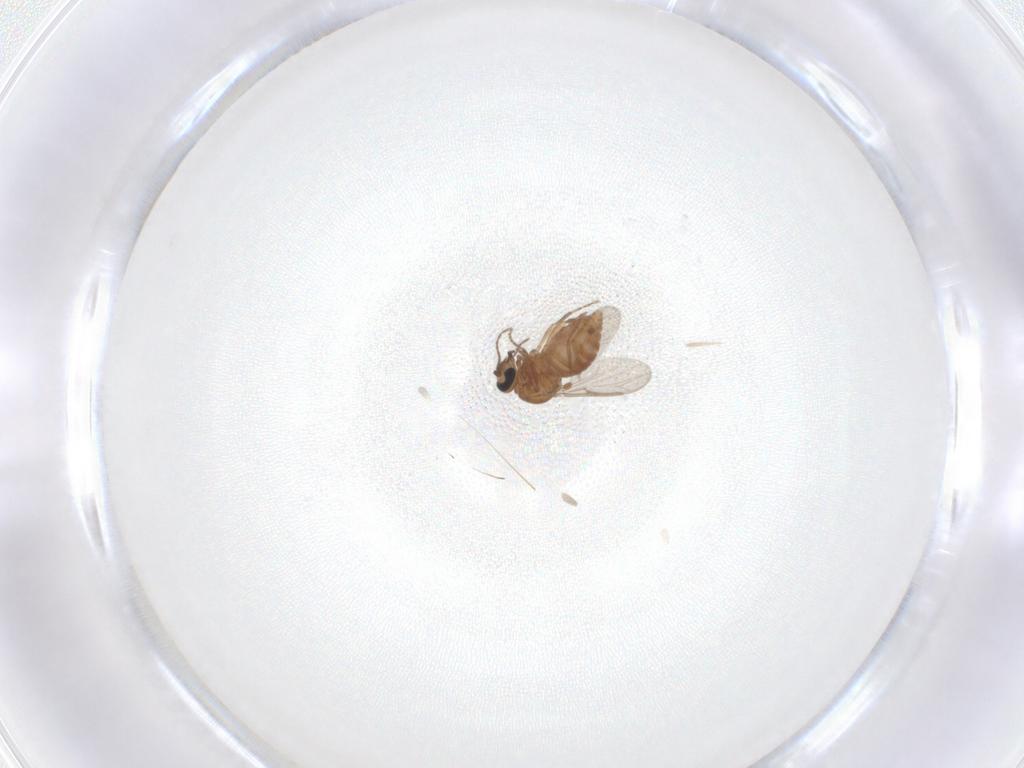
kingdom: Animalia
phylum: Arthropoda
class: Insecta
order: Diptera
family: Ceratopogonidae
